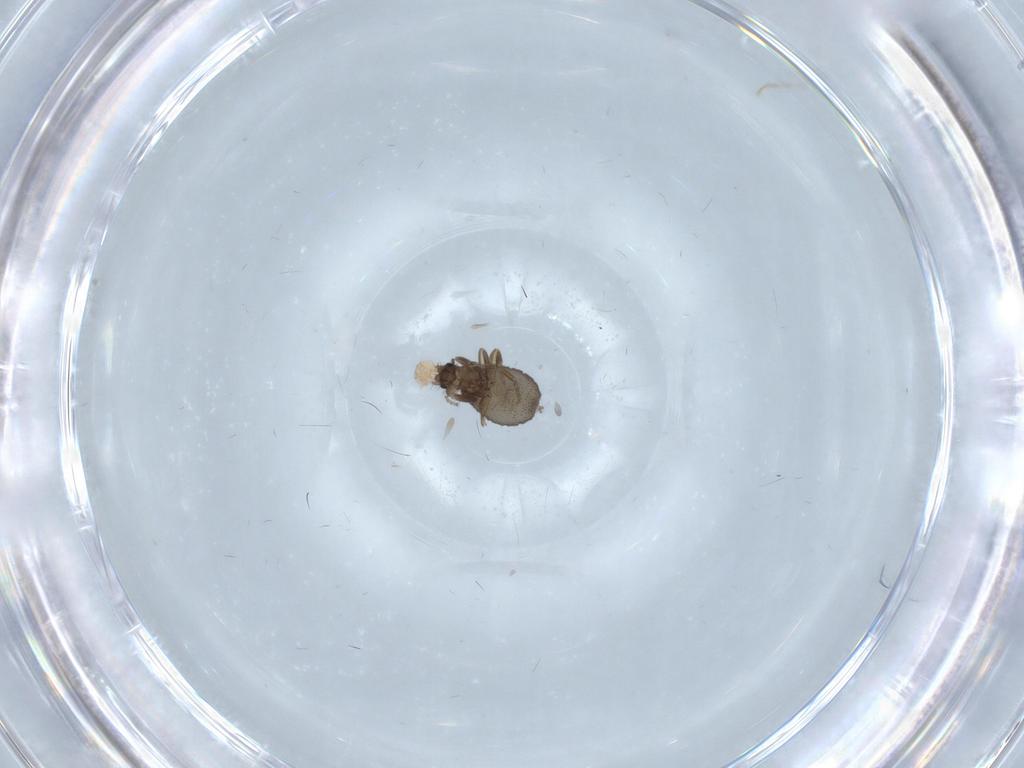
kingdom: Animalia
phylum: Arthropoda
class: Insecta
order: Diptera
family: Psychodidae
